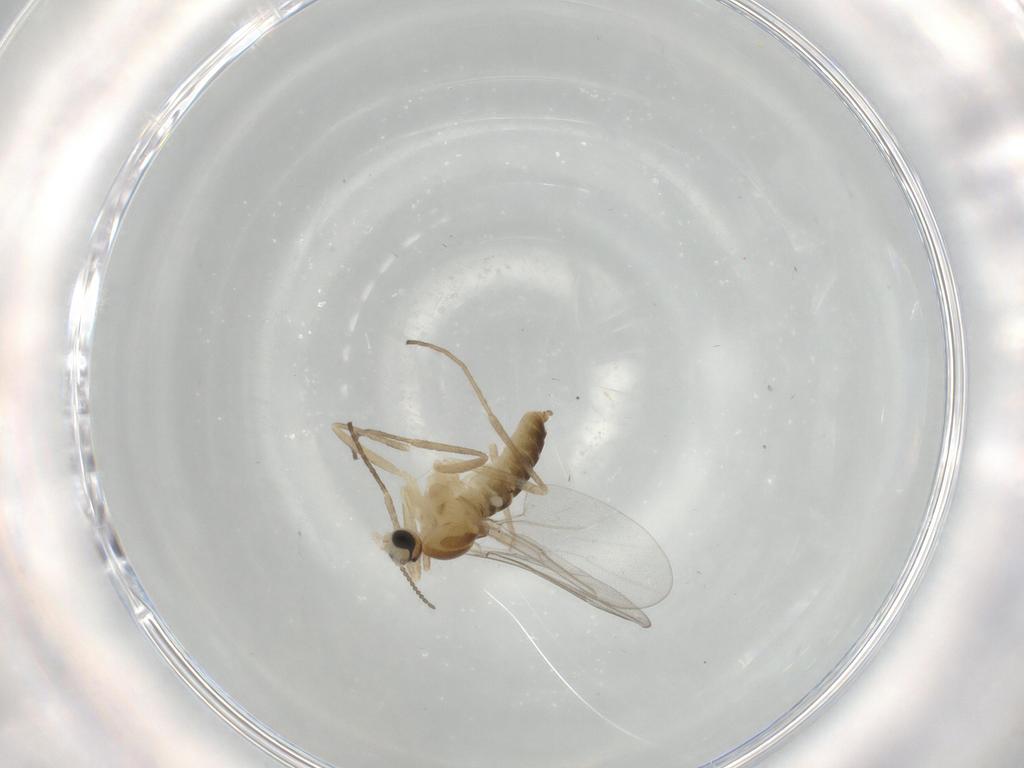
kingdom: Animalia
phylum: Arthropoda
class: Insecta
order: Diptera
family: Cecidomyiidae
